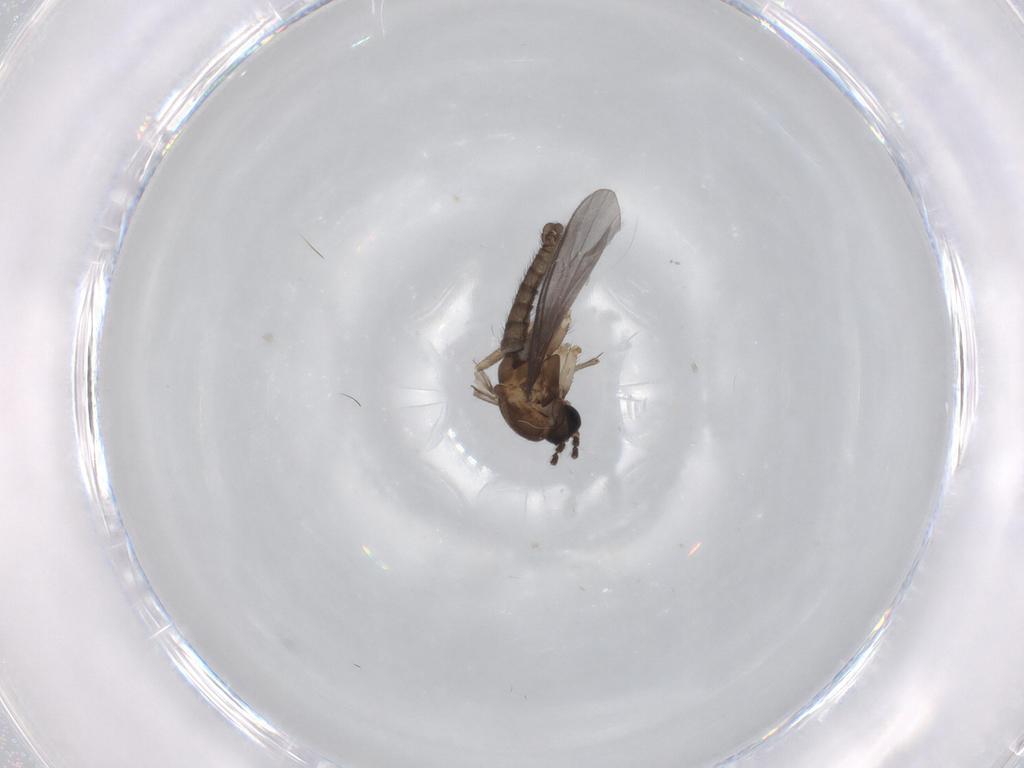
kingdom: Animalia
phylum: Arthropoda
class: Insecta
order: Diptera
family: Sciaridae
